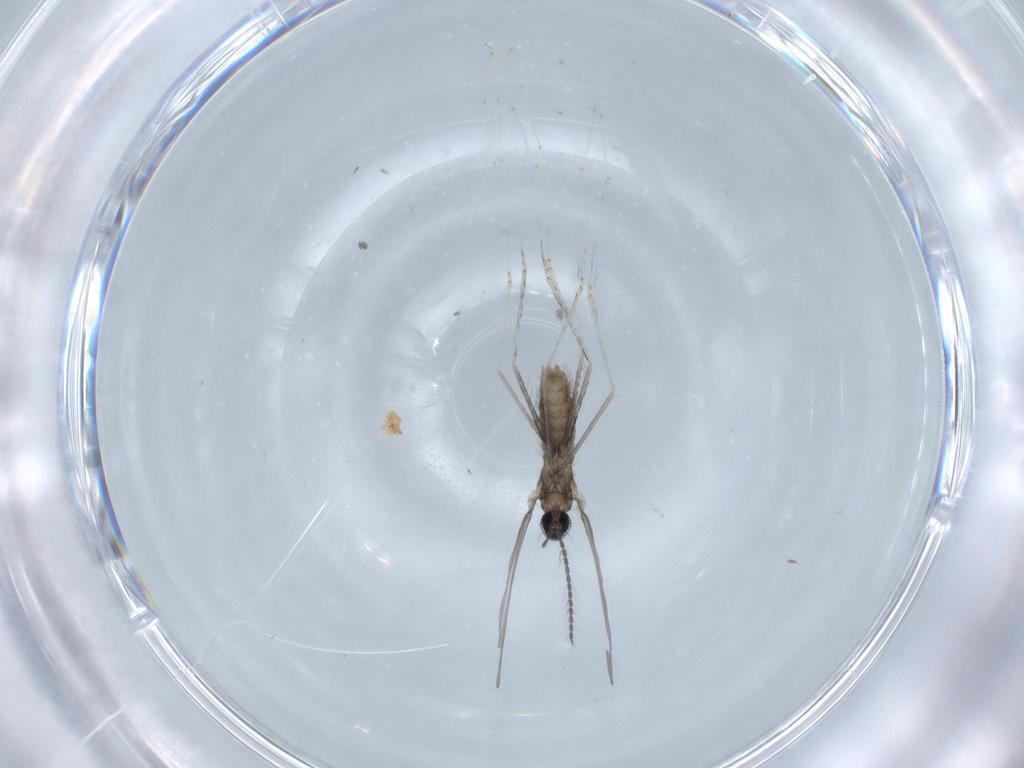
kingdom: Animalia
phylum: Arthropoda
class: Insecta
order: Diptera
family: Cecidomyiidae
